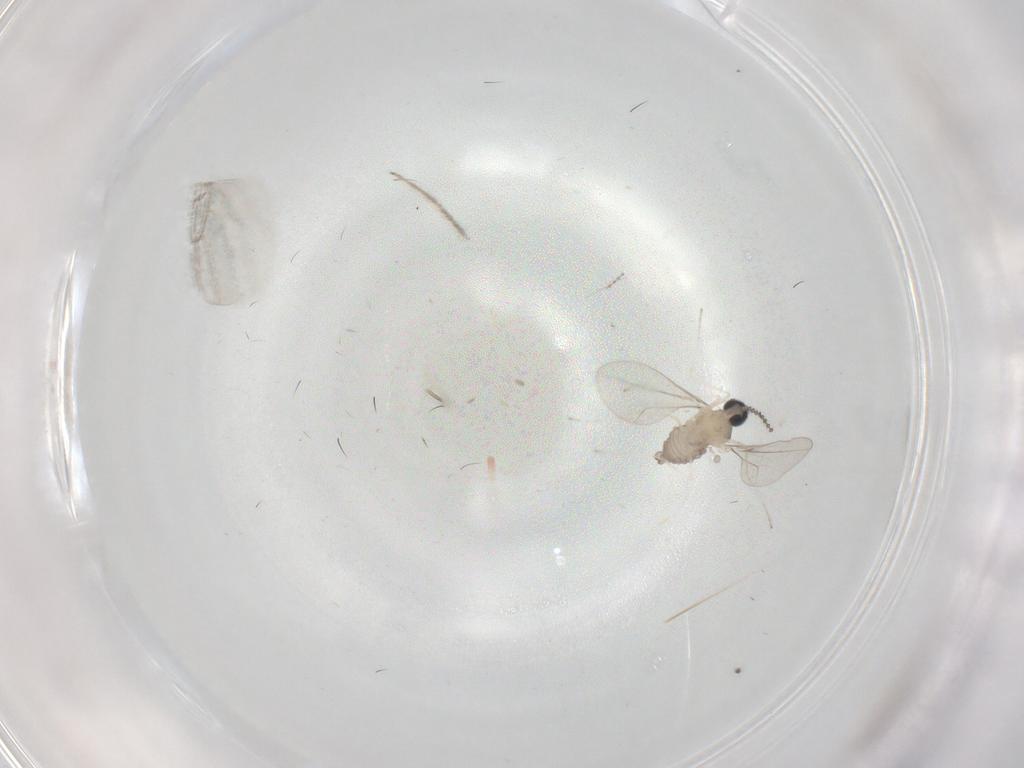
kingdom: Animalia
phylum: Arthropoda
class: Insecta
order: Diptera
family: Chironomidae
